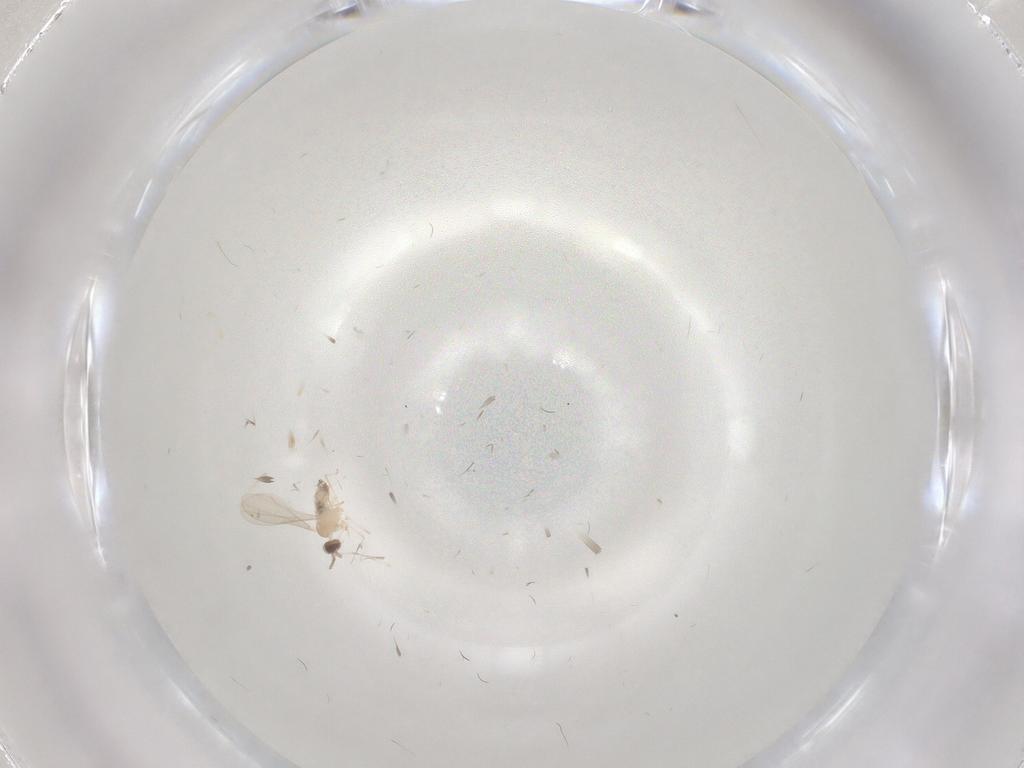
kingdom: Animalia
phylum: Arthropoda
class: Insecta
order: Diptera
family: Cecidomyiidae
